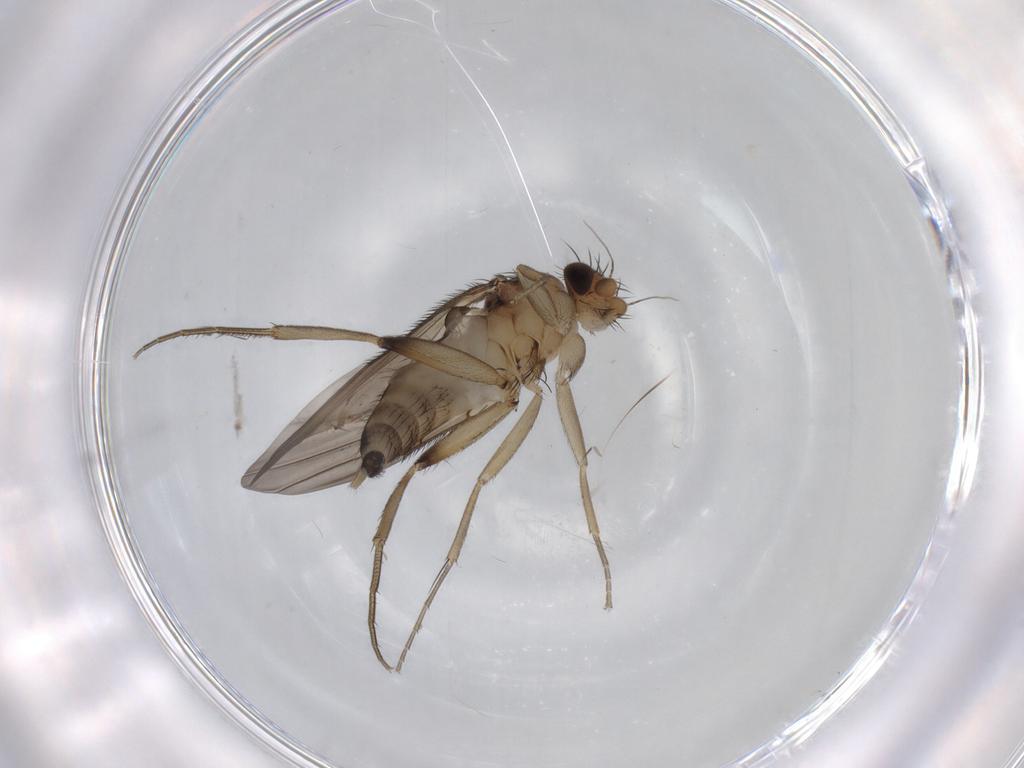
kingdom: Animalia
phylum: Arthropoda
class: Insecta
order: Diptera
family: Phoridae
